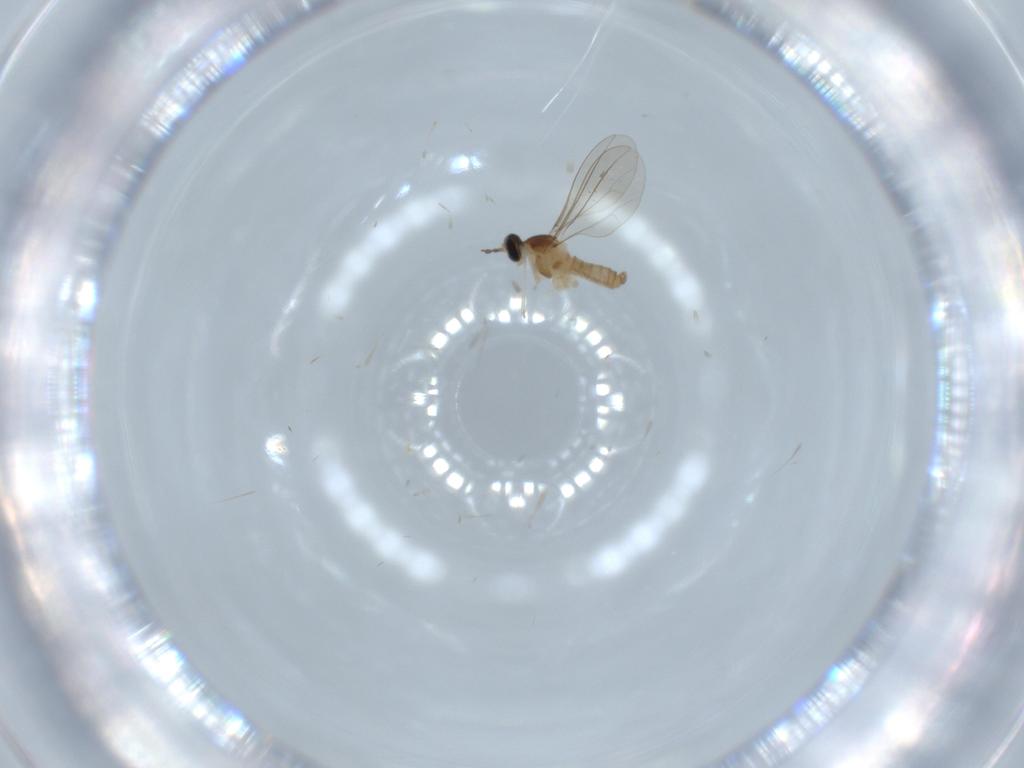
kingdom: Animalia
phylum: Arthropoda
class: Insecta
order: Diptera
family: Cecidomyiidae
